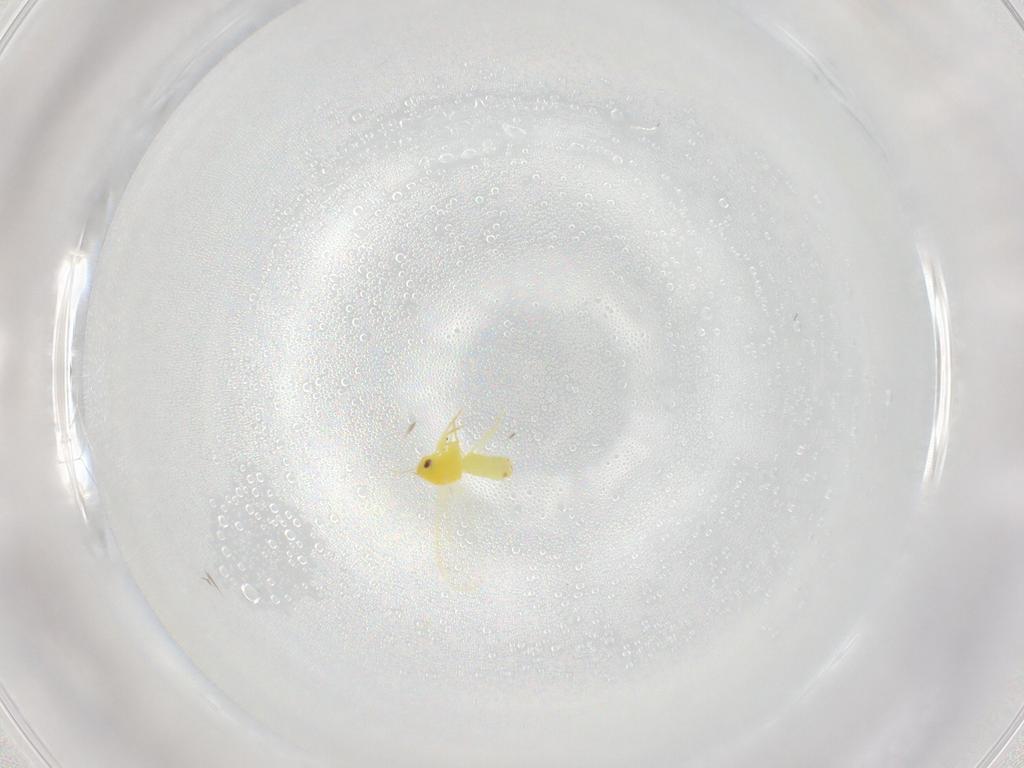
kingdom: Animalia
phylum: Arthropoda
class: Insecta
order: Hemiptera
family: Aleyrodidae
